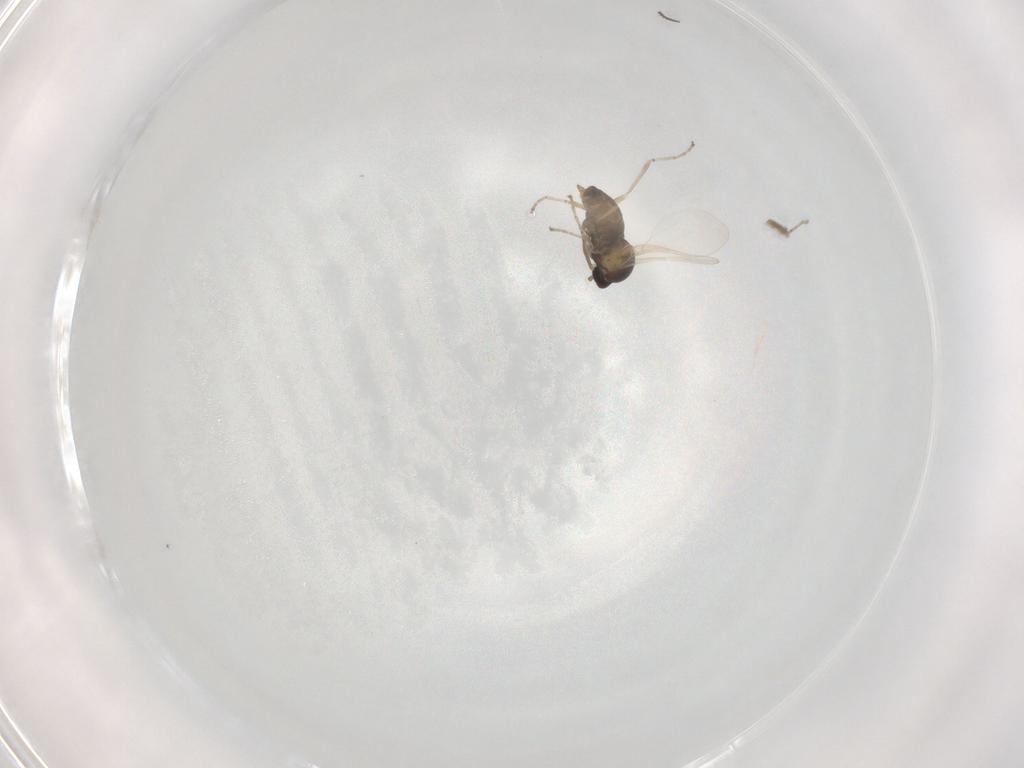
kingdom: Animalia
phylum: Arthropoda
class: Insecta
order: Diptera
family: Cecidomyiidae
